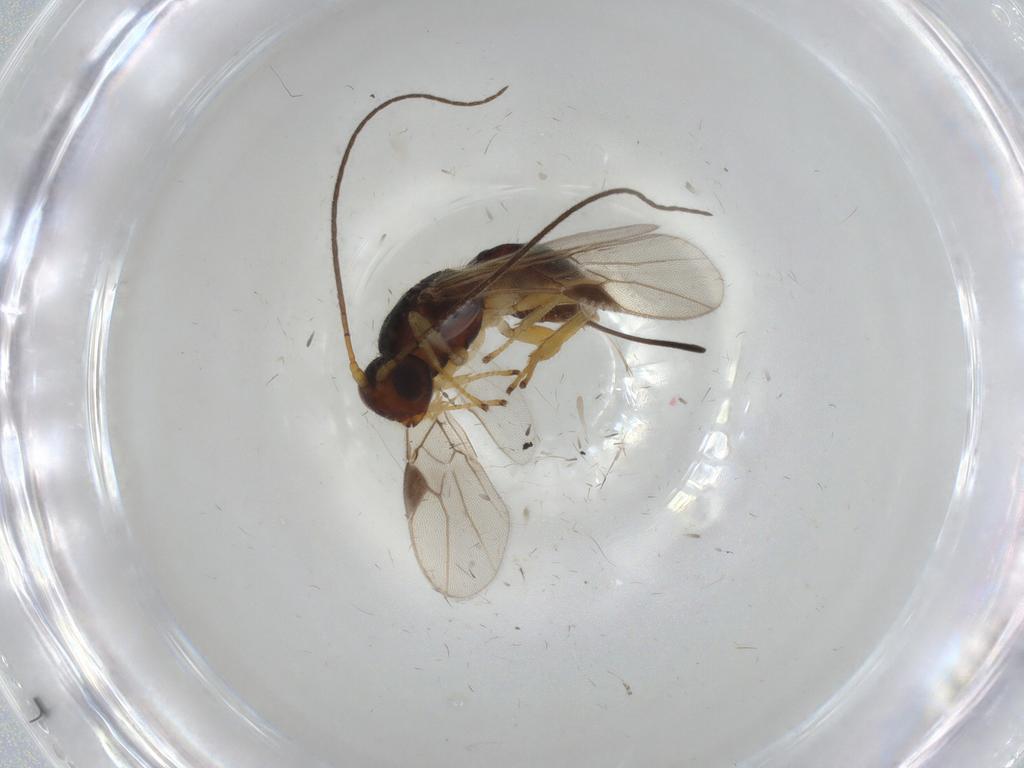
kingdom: Animalia
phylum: Arthropoda
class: Insecta
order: Hymenoptera
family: Braconidae
